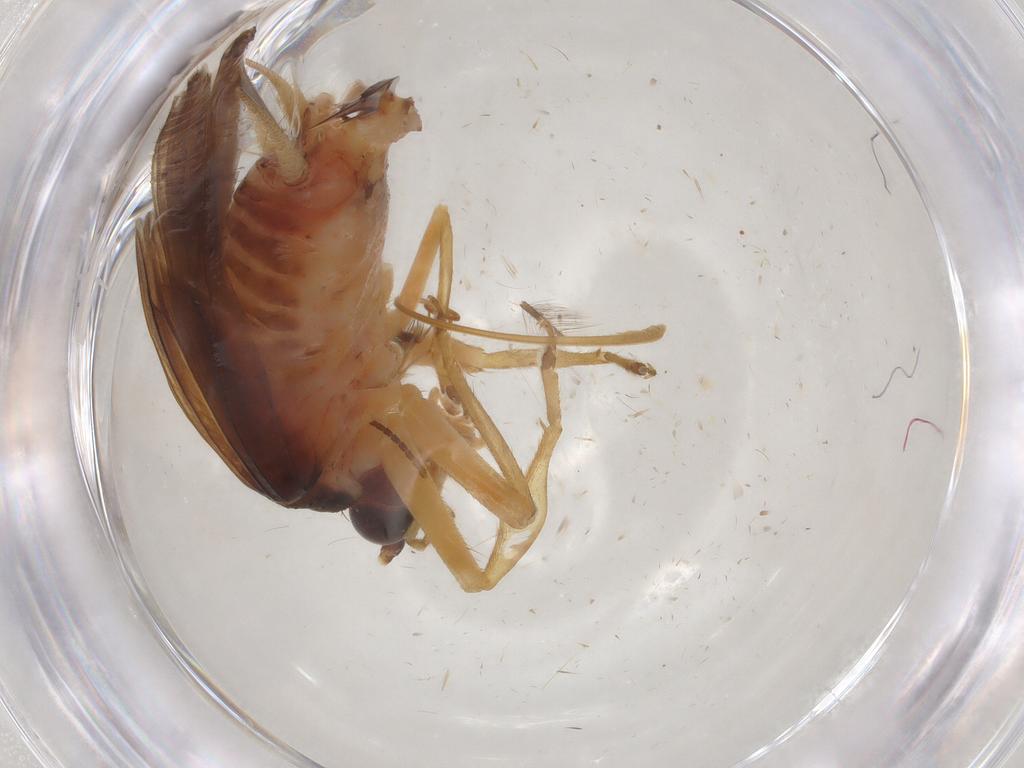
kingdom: Animalia
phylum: Arthropoda
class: Insecta
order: Orthoptera
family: Trigonidiidae
